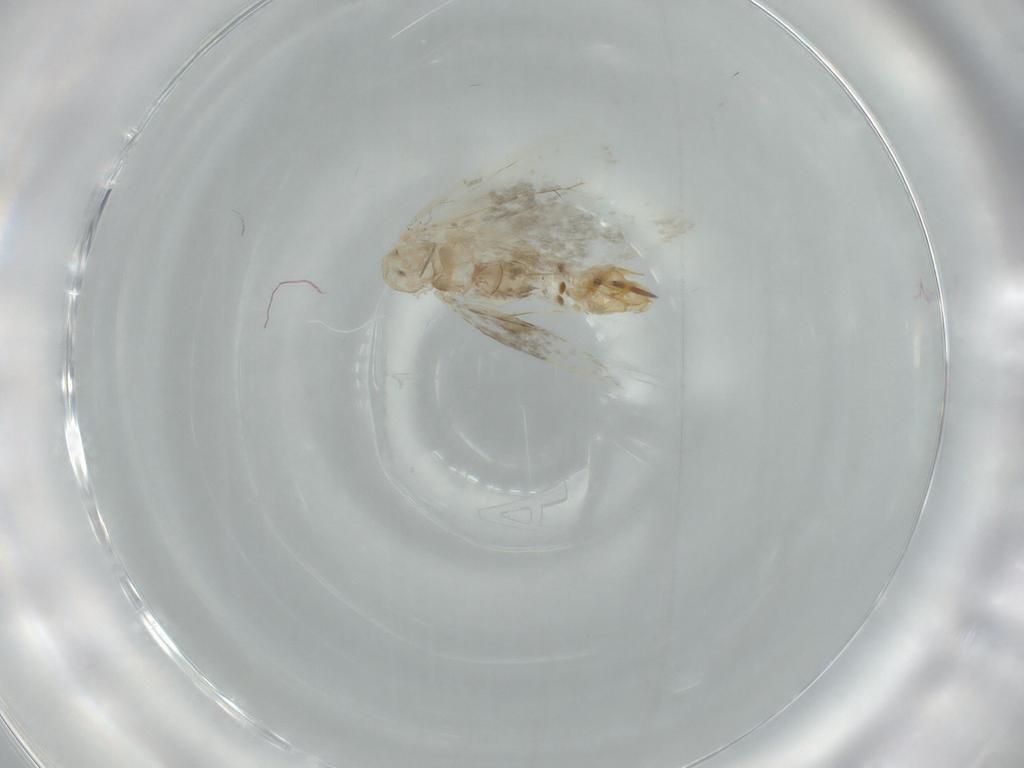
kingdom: Animalia
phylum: Arthropoda
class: Collembola
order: Entomobryomorpha
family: Entomobryidae
